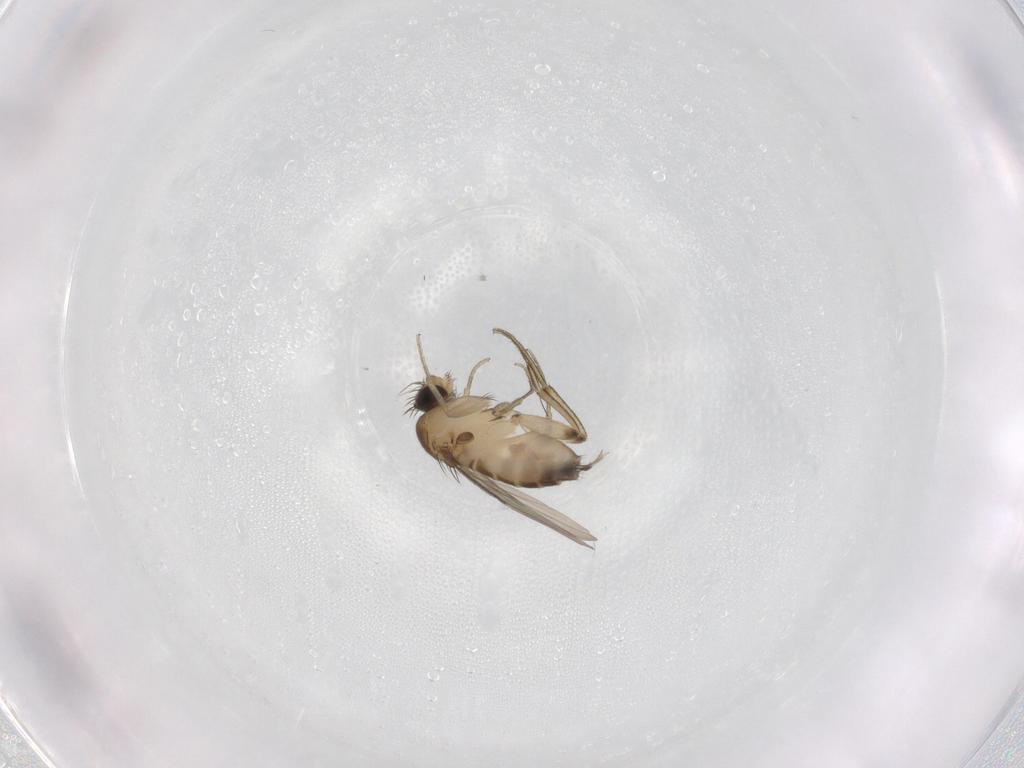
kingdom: Animalia
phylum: Arthropoda
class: Insecta
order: Diptera
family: Phoridae
